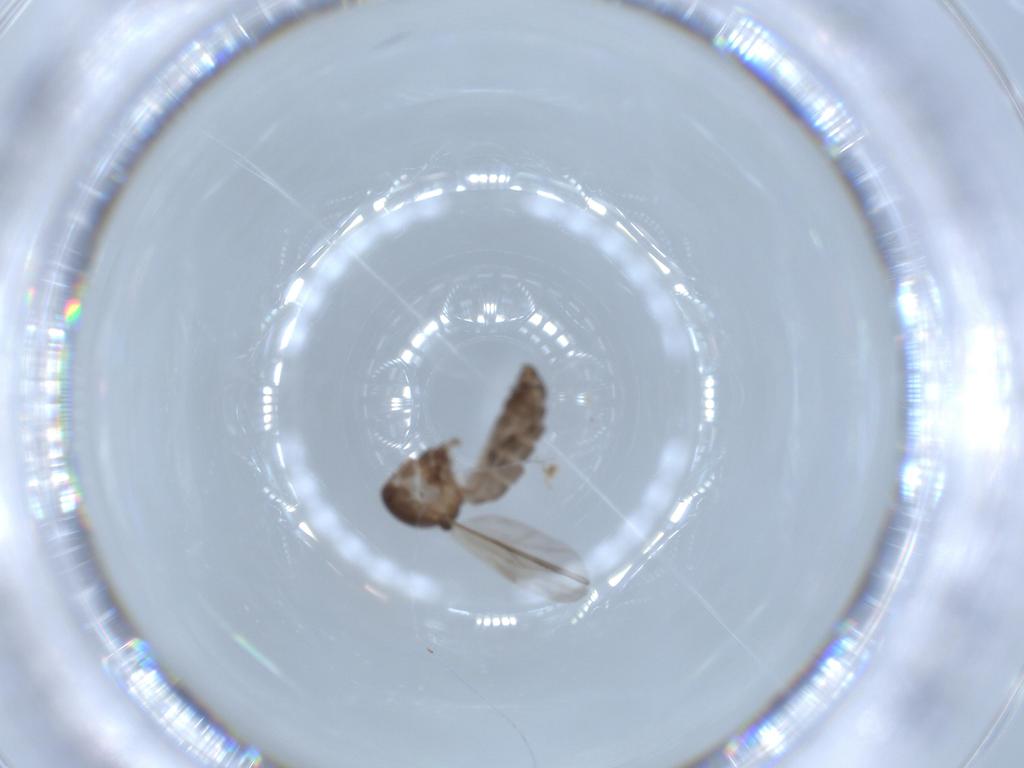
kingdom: Animalia
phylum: Arthropoda
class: Insecta
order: Diptera
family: Ceratopogonidae
